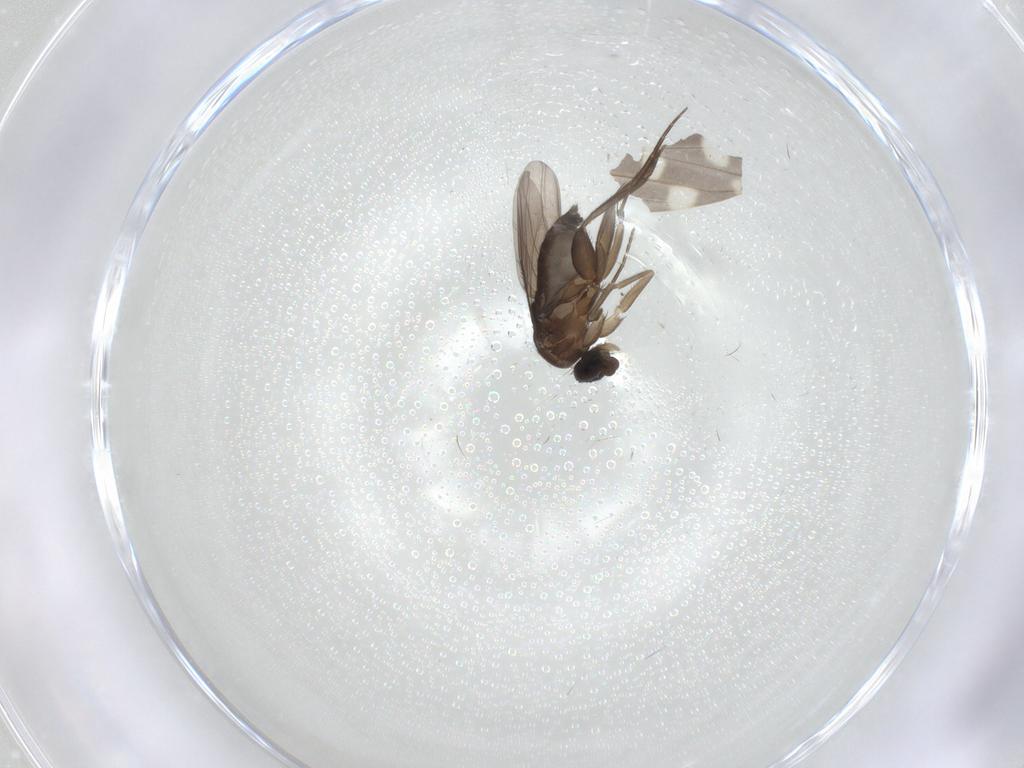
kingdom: Animalia
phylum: Arthropoda
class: Insecta
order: Diptera
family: Phoridae
